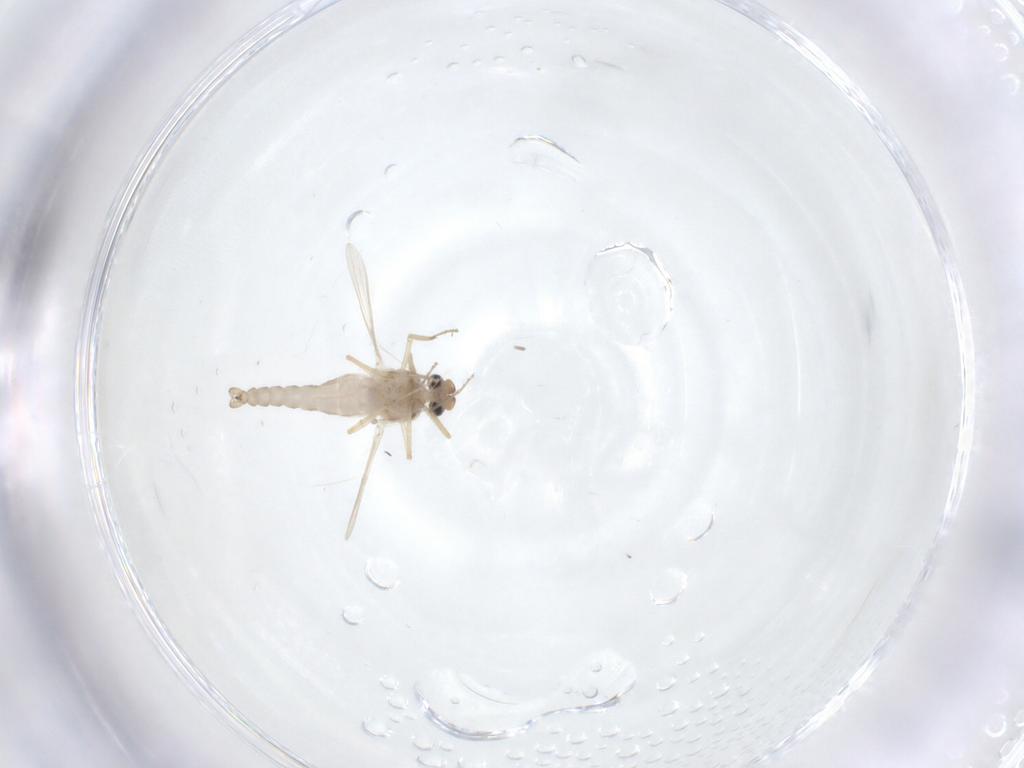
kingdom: Animalia
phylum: Arthropoda
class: Insecta
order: Diptera
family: Ceratopogonidae
